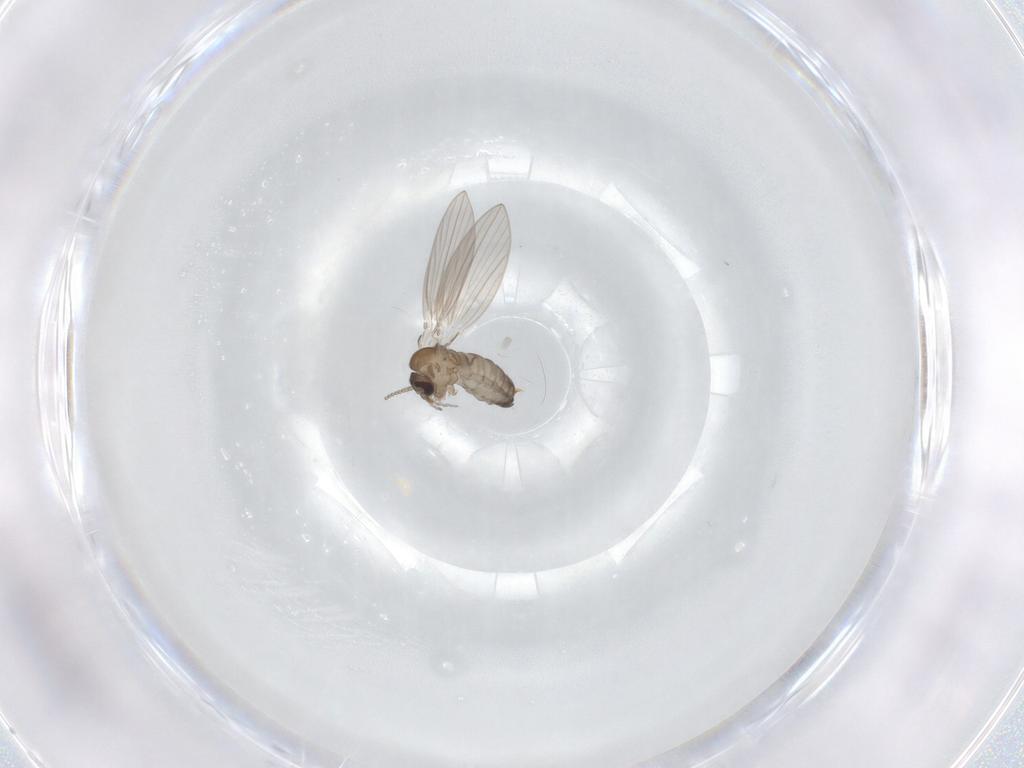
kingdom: Animalia
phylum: Arthropoda
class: Insecta
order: Diptera
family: Psychodidae
